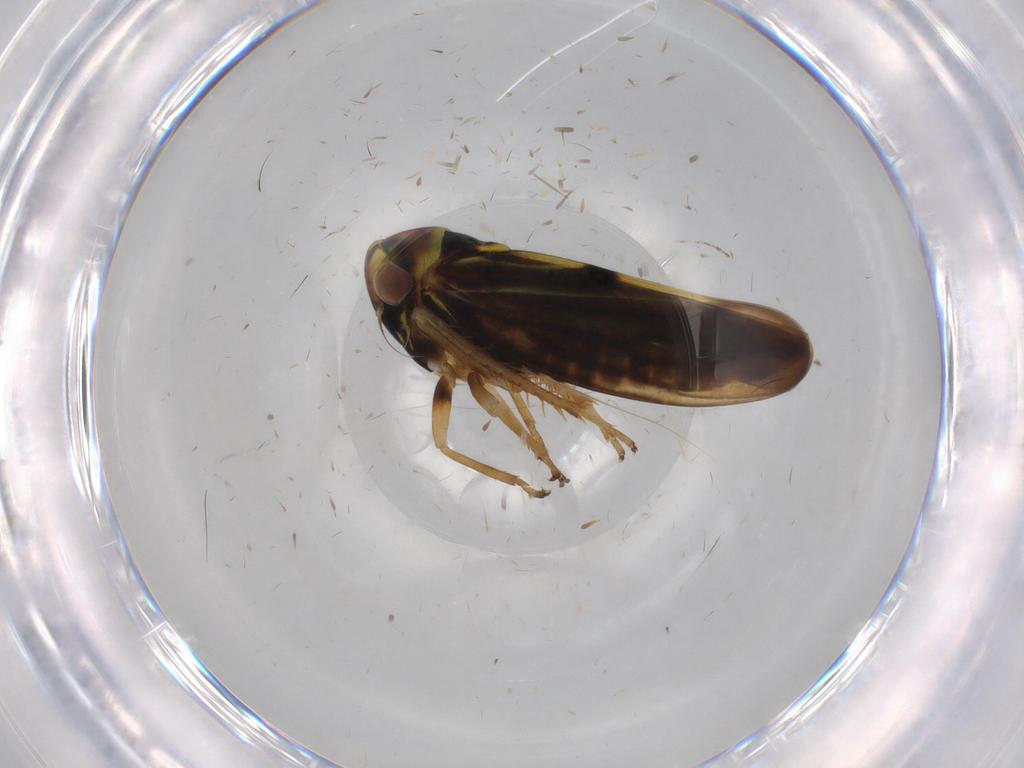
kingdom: Animalia
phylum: Arthropoda
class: Insecta
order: Hemiptera
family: Cicadellidae
